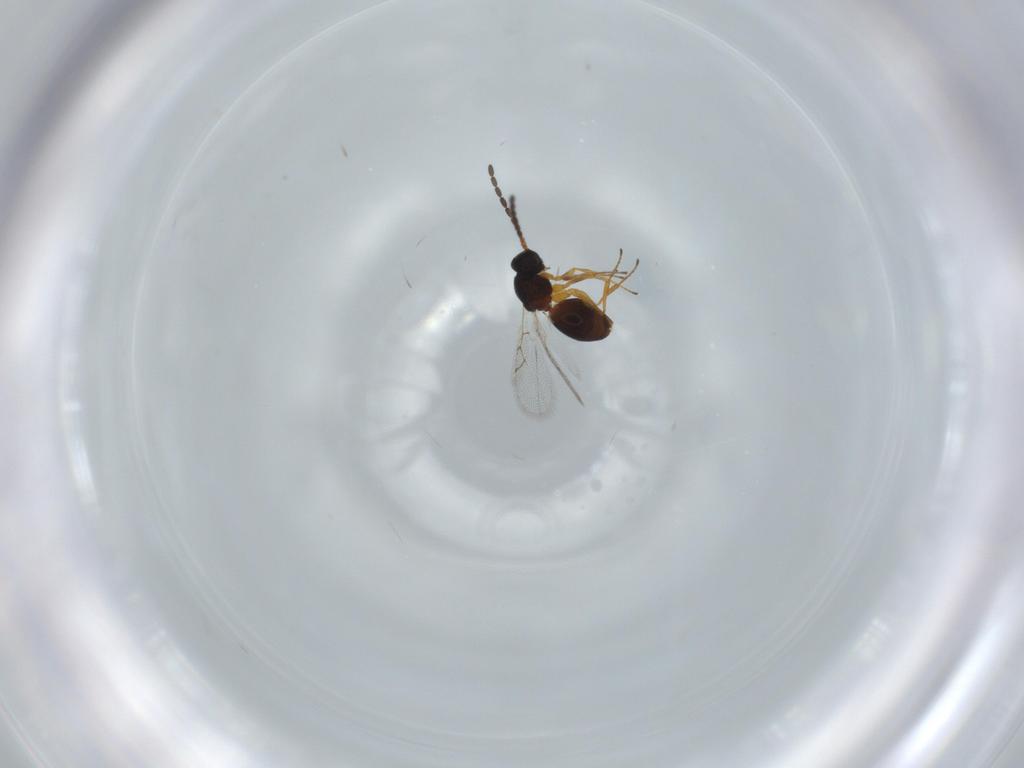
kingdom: Animalia
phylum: Arthropoda
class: Insecta
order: Hymenoptera
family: Figitidae
